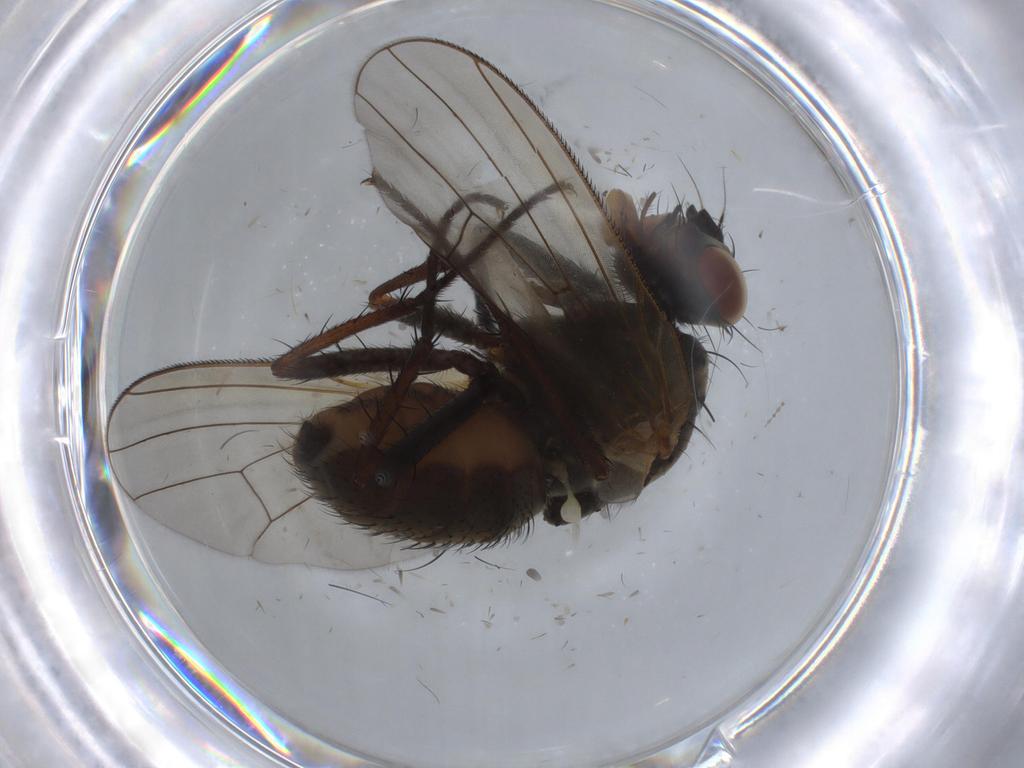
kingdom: Animalia
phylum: Arthropoda
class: Insecta
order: Diptera
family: Anthomyiidae
